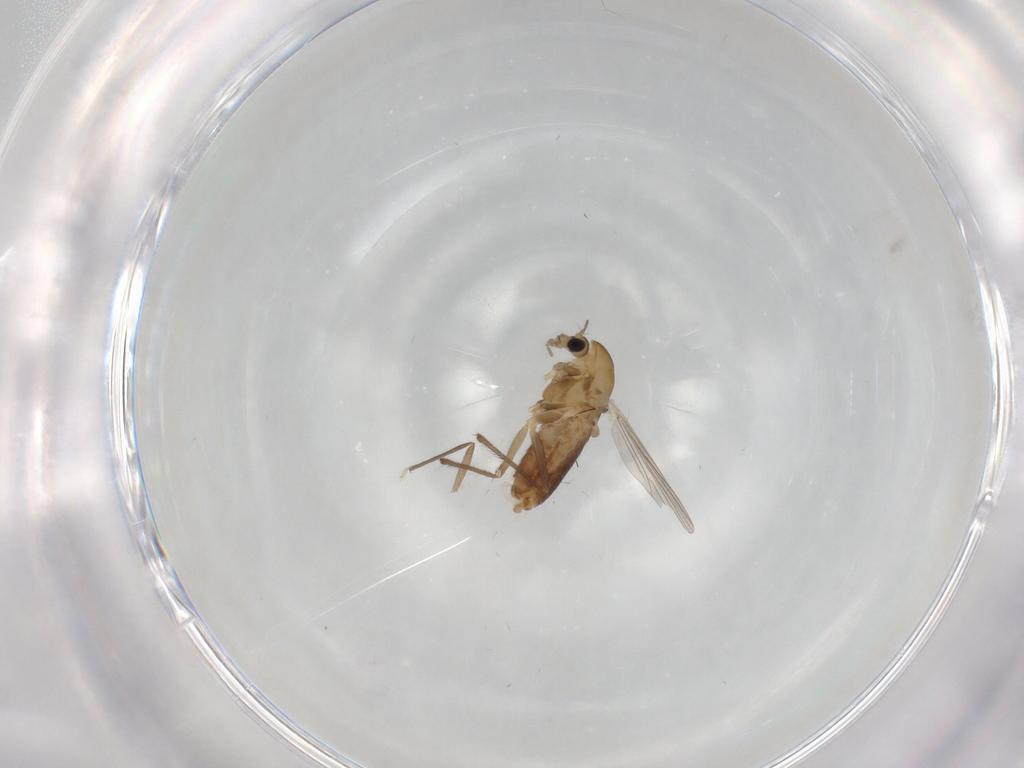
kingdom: Animalia
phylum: Arthropoda
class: Insecta
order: Diptera
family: Chironomidae
